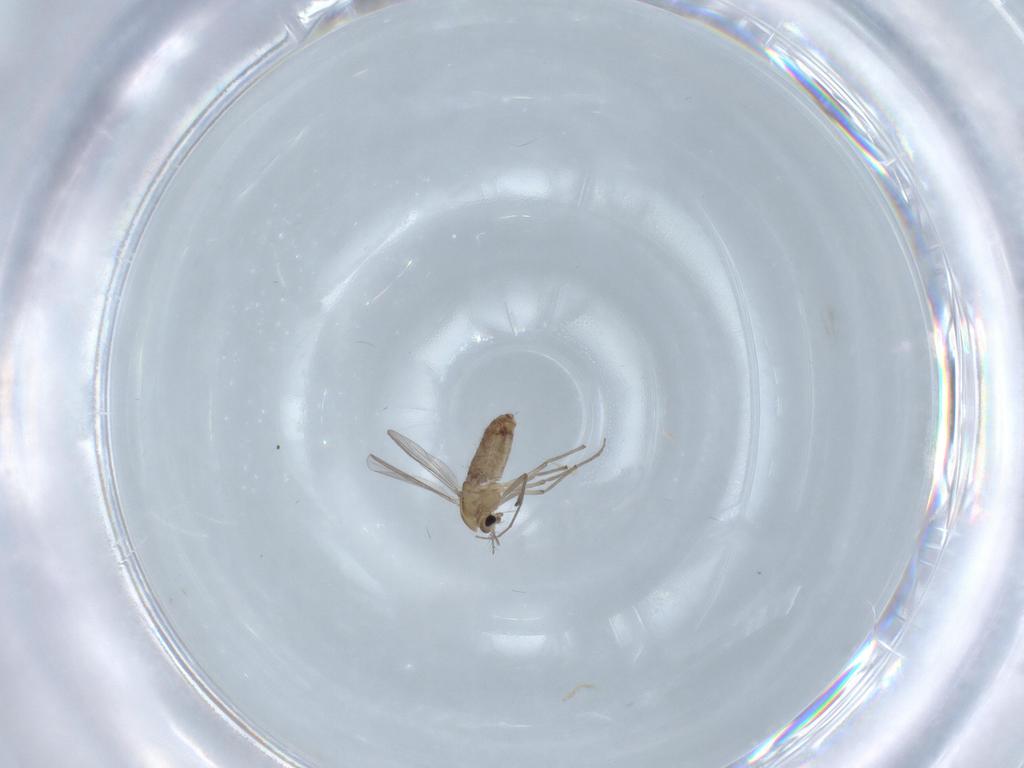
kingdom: Animalia
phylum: Arthropoda
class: Insecta
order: Diptera
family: Chironomidae
